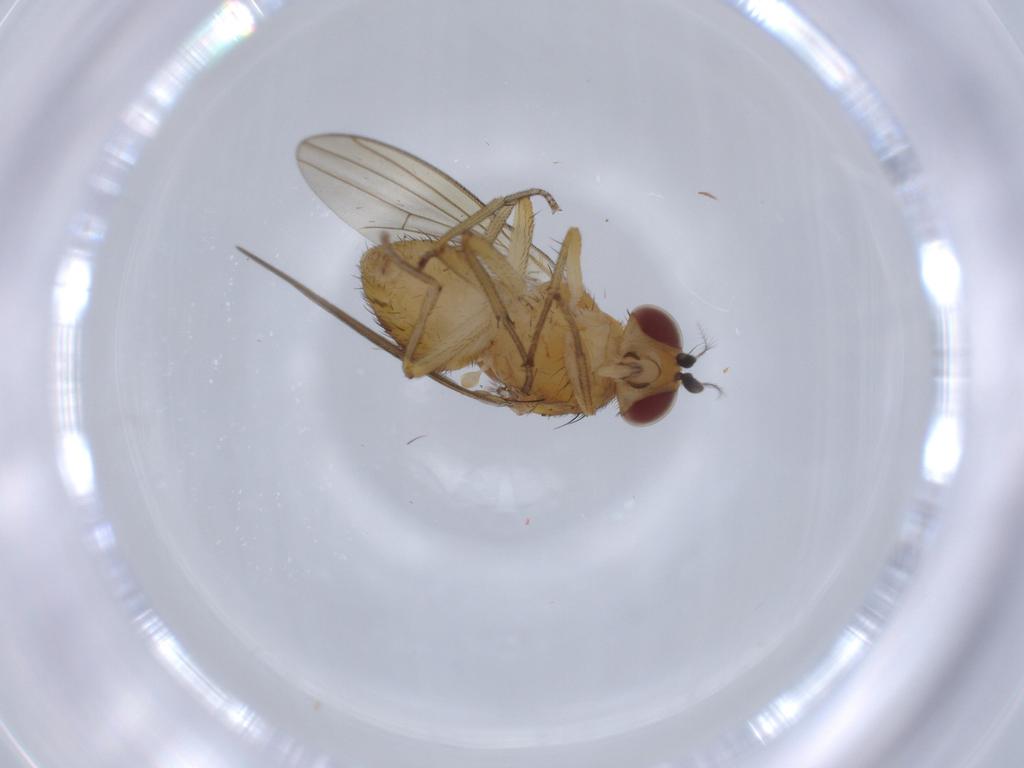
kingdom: Animalia
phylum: Arthropoda
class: Insecta
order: Diptera
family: Lauxaniidae
